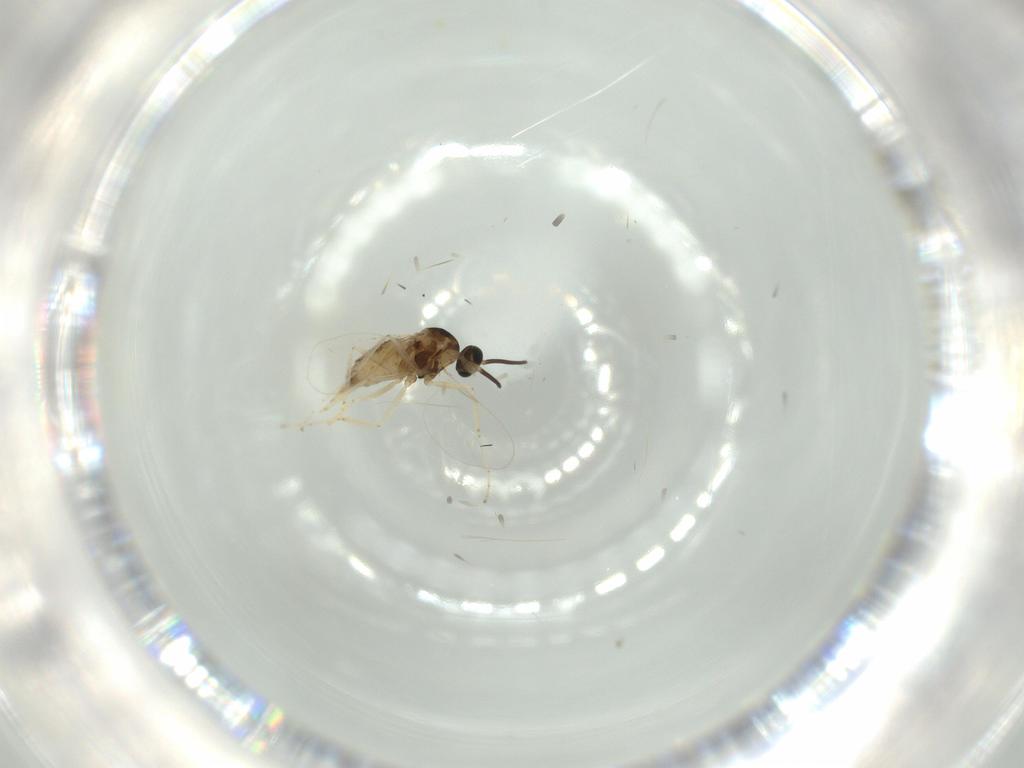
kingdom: Animalia
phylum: Arthropoda
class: Insecta
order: Diptera
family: Cecidomyiidae
